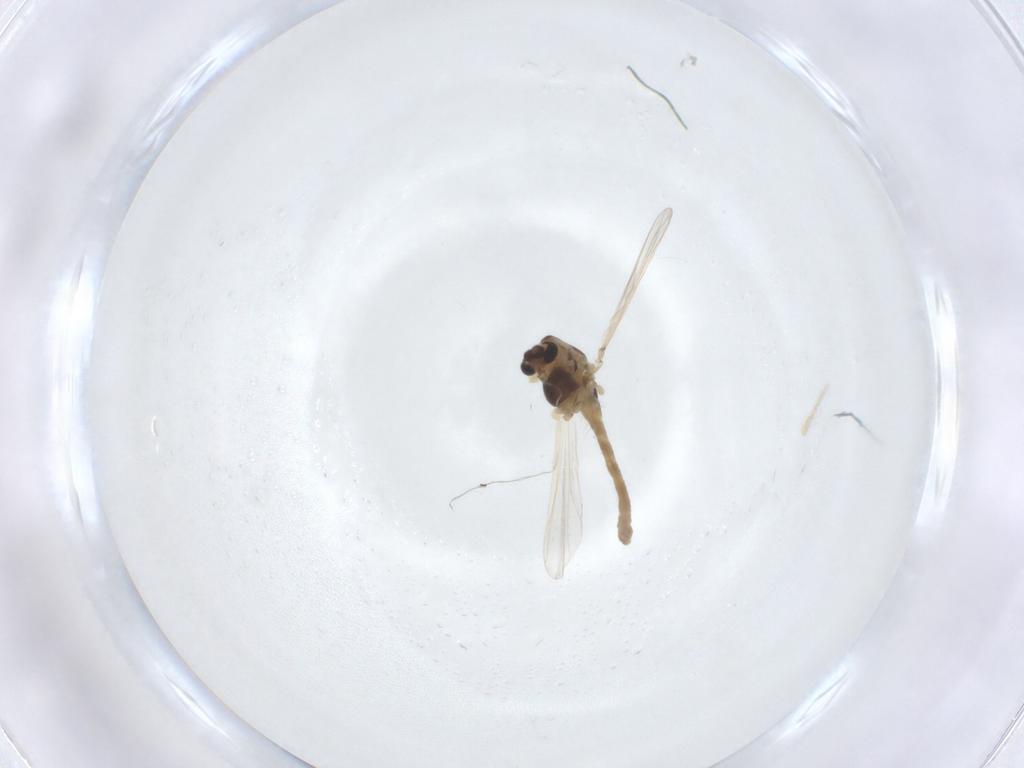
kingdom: Animalia
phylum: Arthropoda
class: Insecta
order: Diptera
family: Chironomidae
